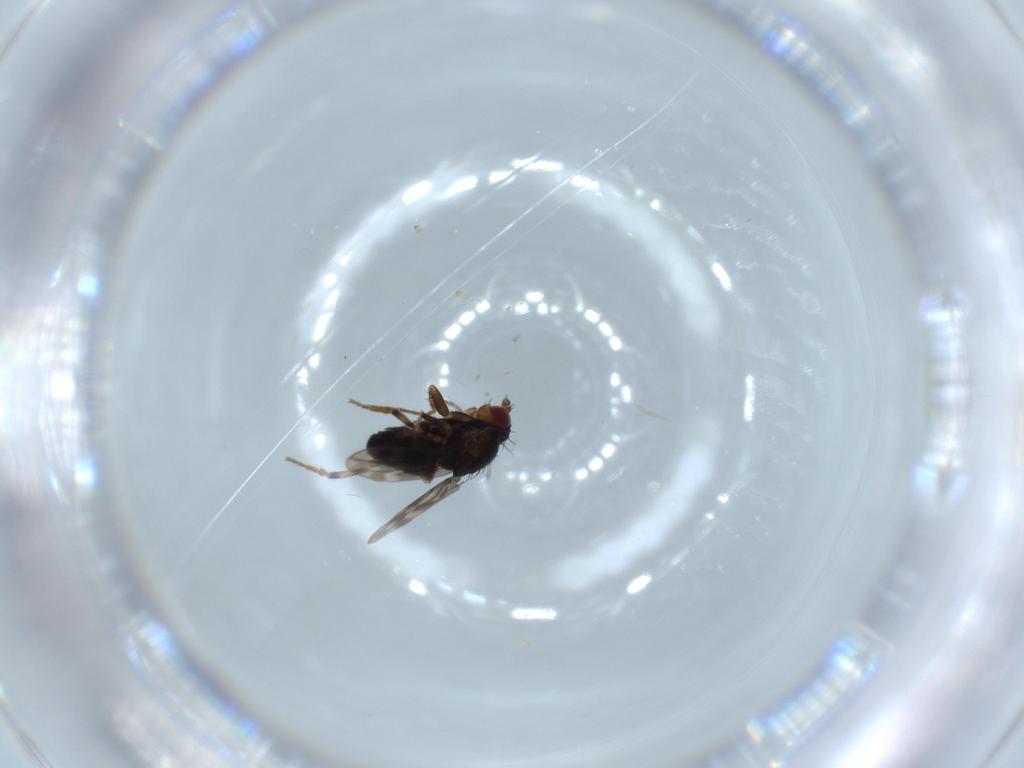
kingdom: Animalia
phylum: Arthropoda
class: Insecta
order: Diptera
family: Sphaeroceridae
